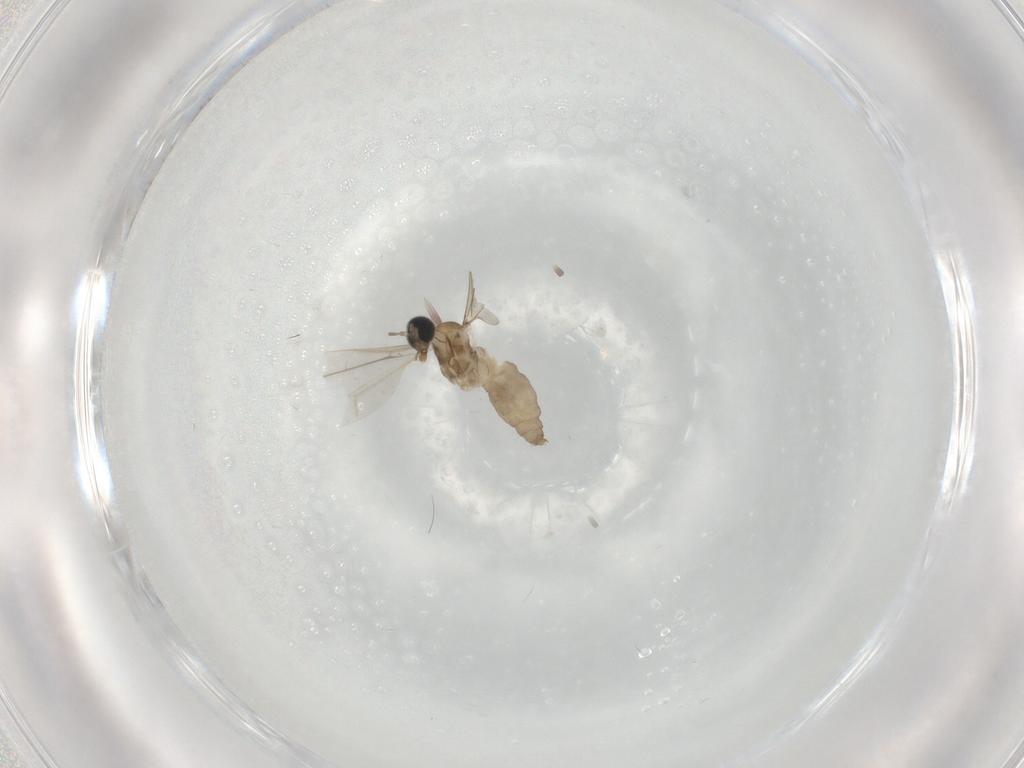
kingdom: Animalia
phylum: Arthropoda
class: Insecta
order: Diptera
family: Cecidomyiidae
